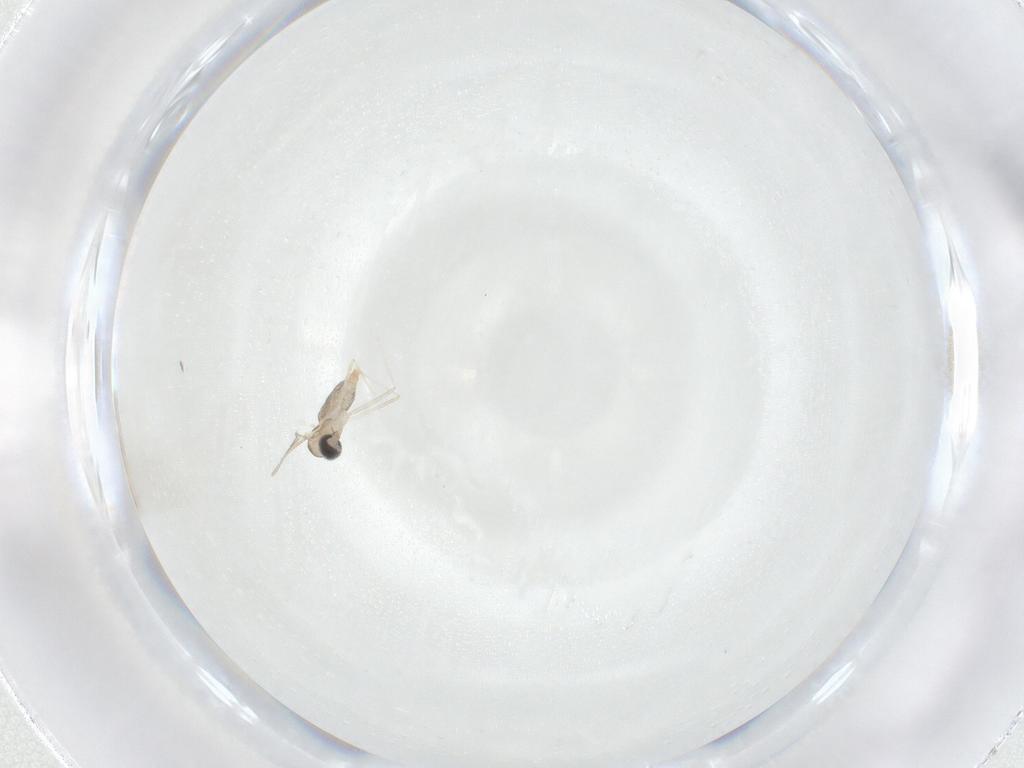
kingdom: Animalia
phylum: Arthropoda
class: Insecta
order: Diptera
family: Cecidomyiidae
